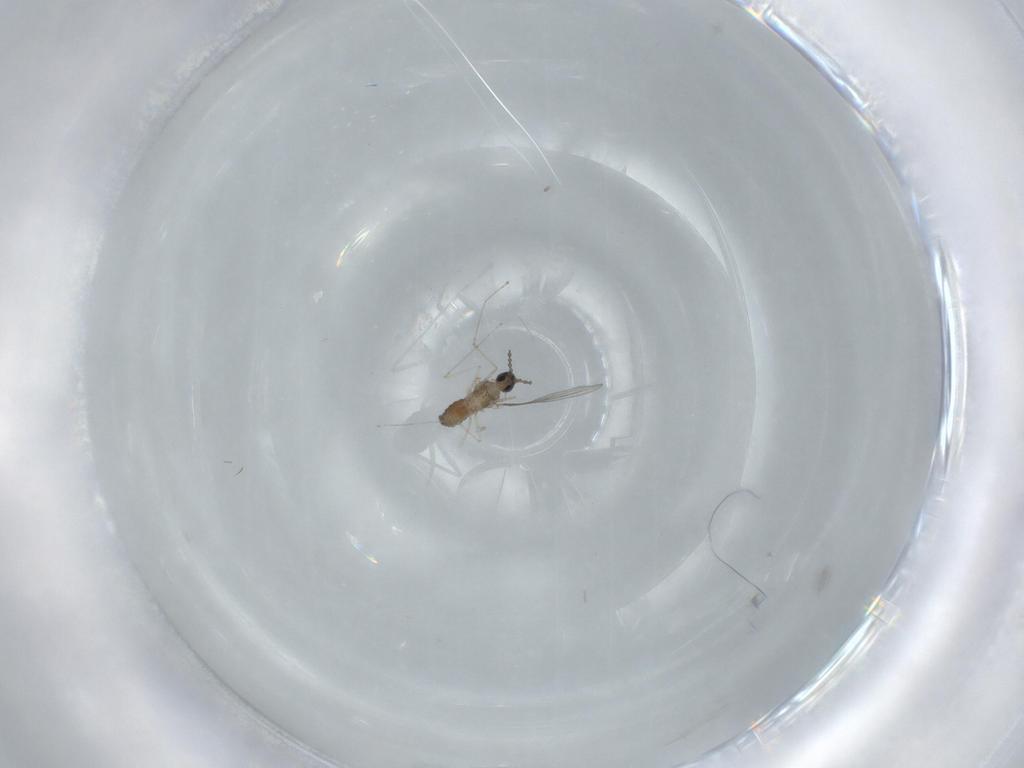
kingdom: Animalia
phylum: Arthropoda
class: Insecta
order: Diptera
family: Cecidomyiidae
